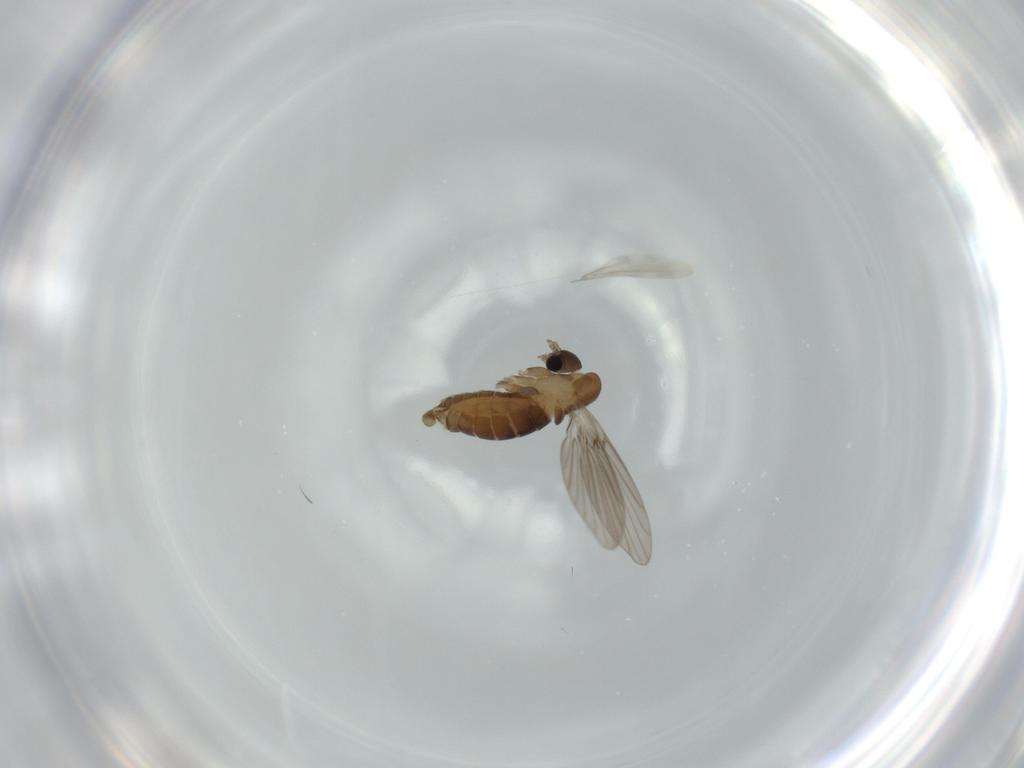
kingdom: Animalia
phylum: Arthropoda
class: Insecta
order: Diptera
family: Psychodidae
